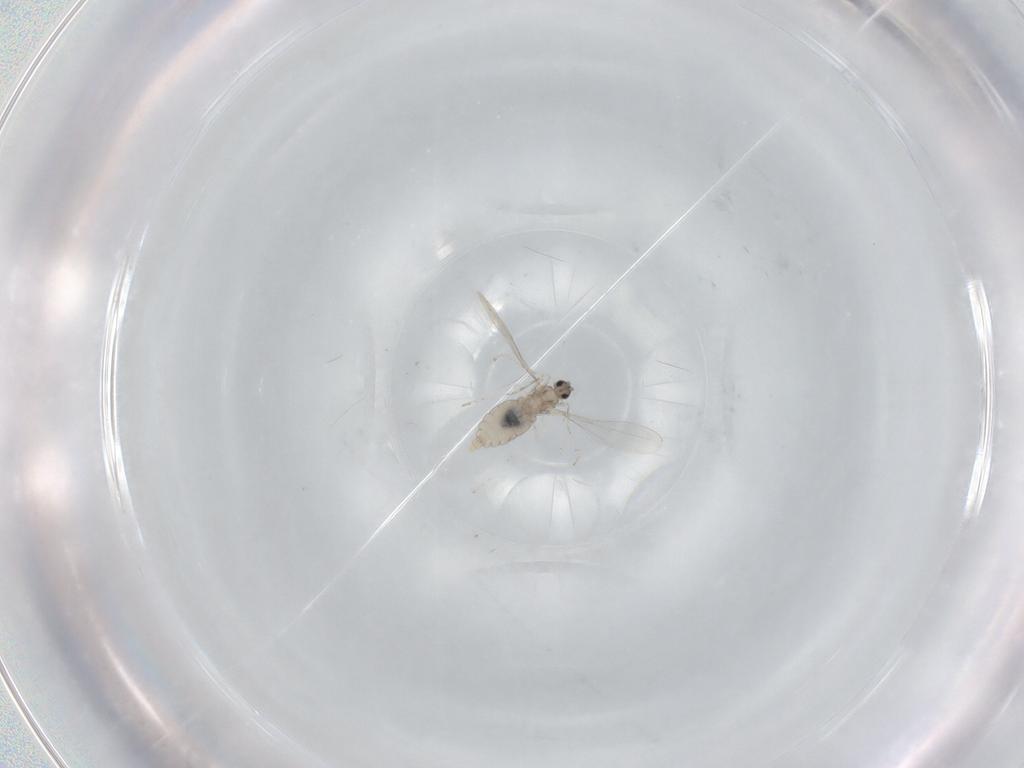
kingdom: Animalia
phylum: Arthropoda
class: Insecta
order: Diptera
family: Cecidomyiidae
